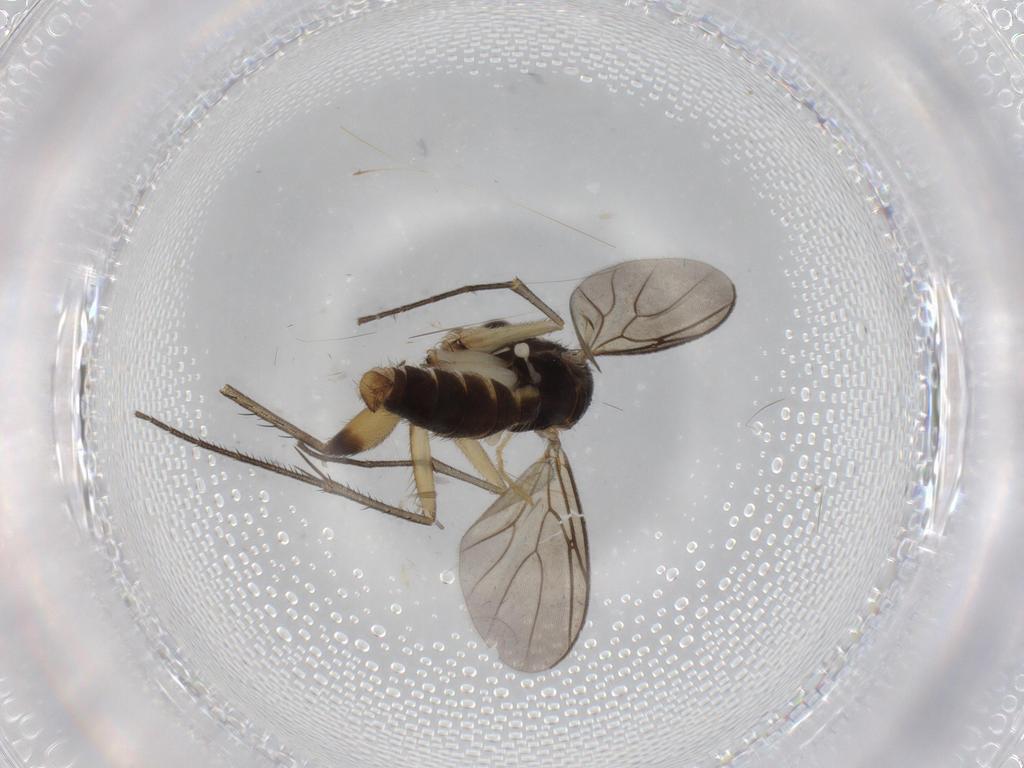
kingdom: Animalia
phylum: Arthropoda
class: Insecta
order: Diptera
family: Chironomidae
